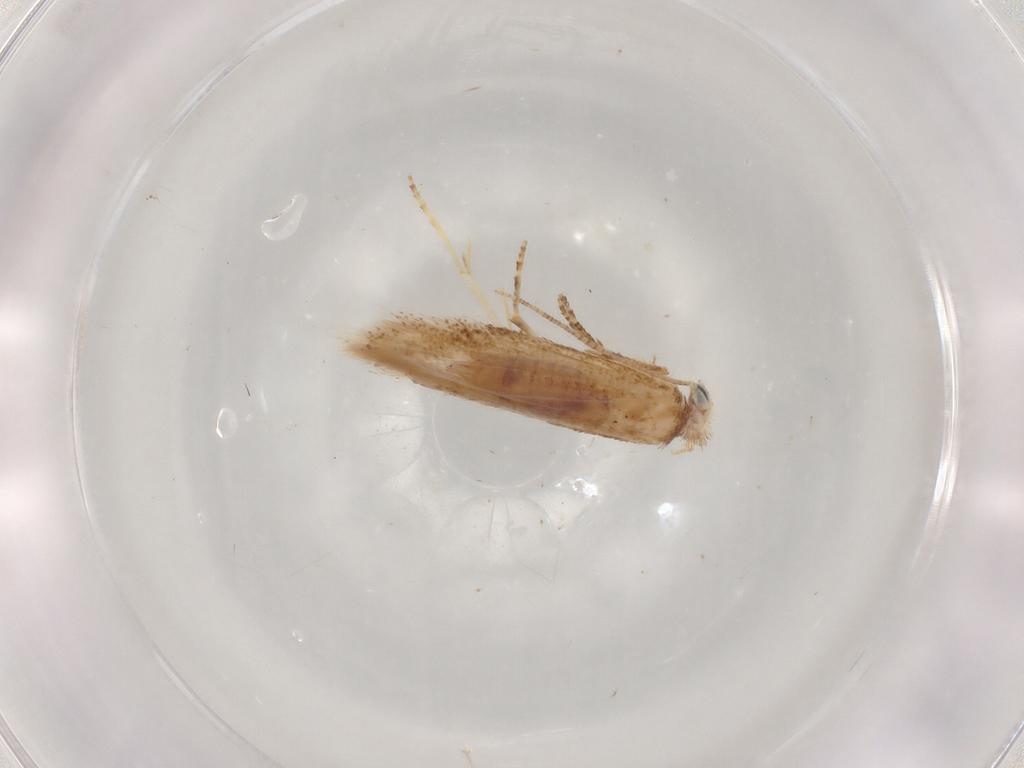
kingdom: Animalia
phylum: Arthropoda
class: Insecta
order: Lepidoptera
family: Bucculatricidae
